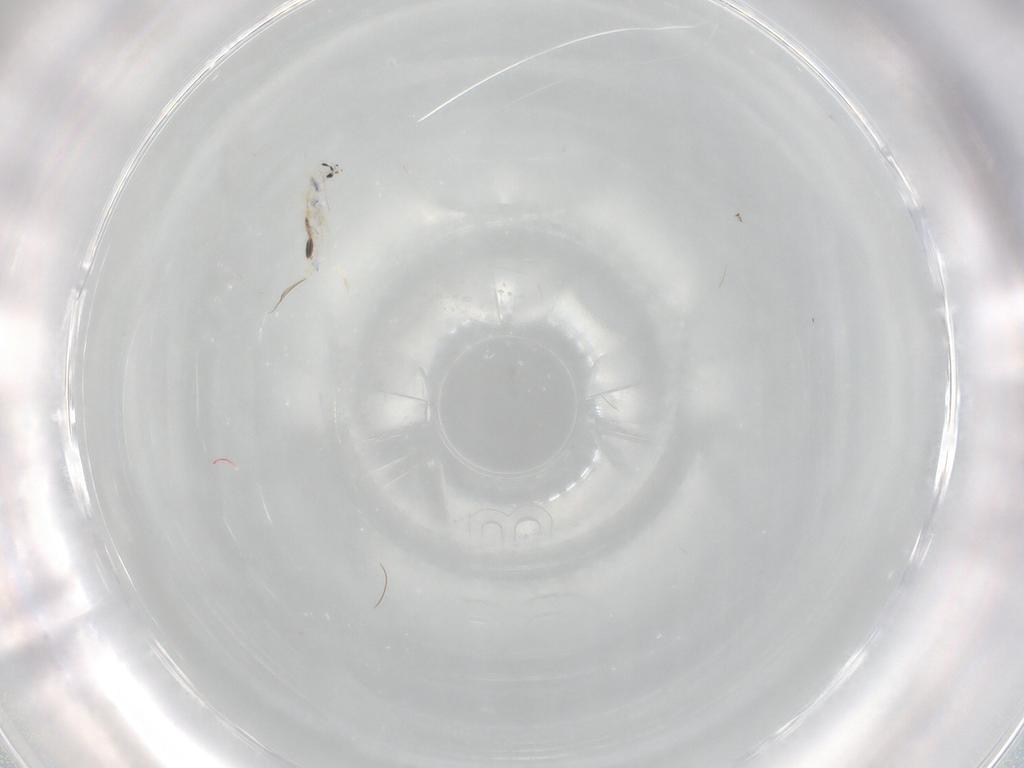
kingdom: Animalia
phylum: Arthropoda
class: Collembola
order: Entomobryomorpha
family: Entomobryidae
